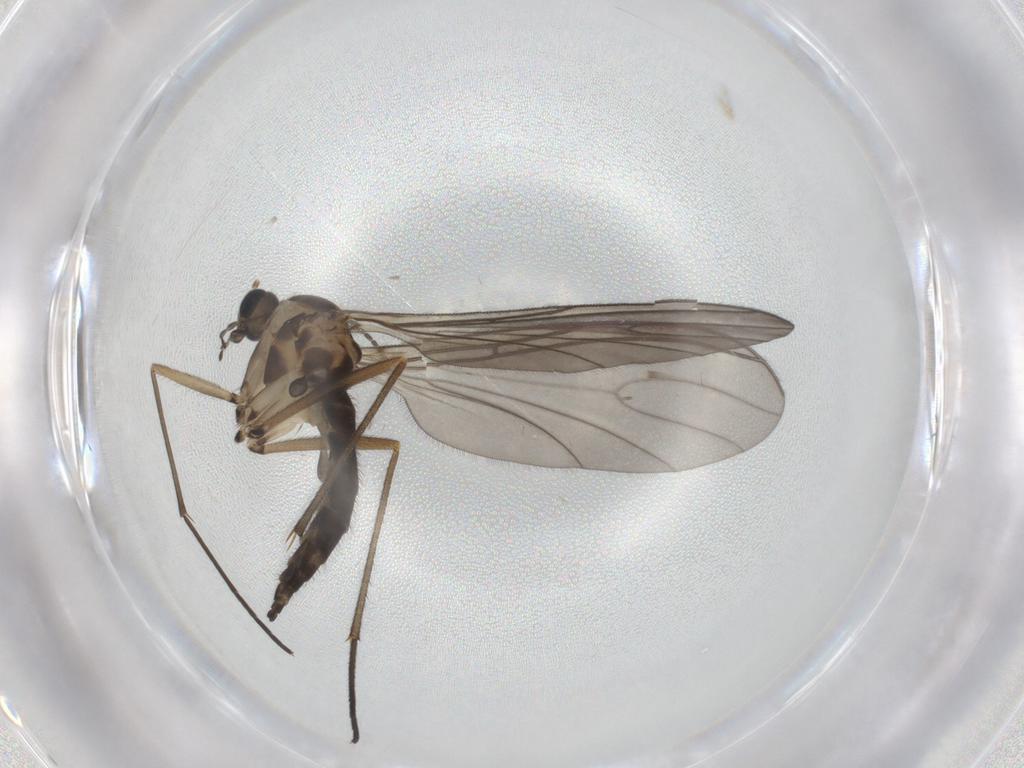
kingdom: Animalia
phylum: Arthropoda
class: Insecta
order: Diptera
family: Sciaridae
